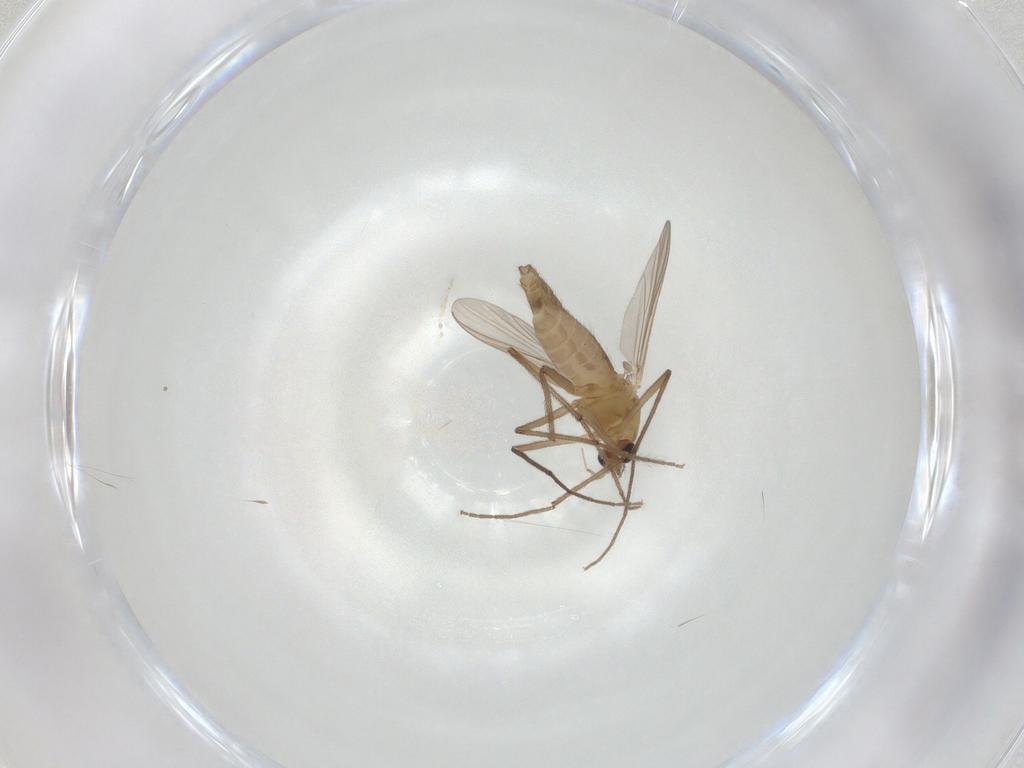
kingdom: Animalia
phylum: Arthropoda
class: Insecta
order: Diptera
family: Chironomidae
